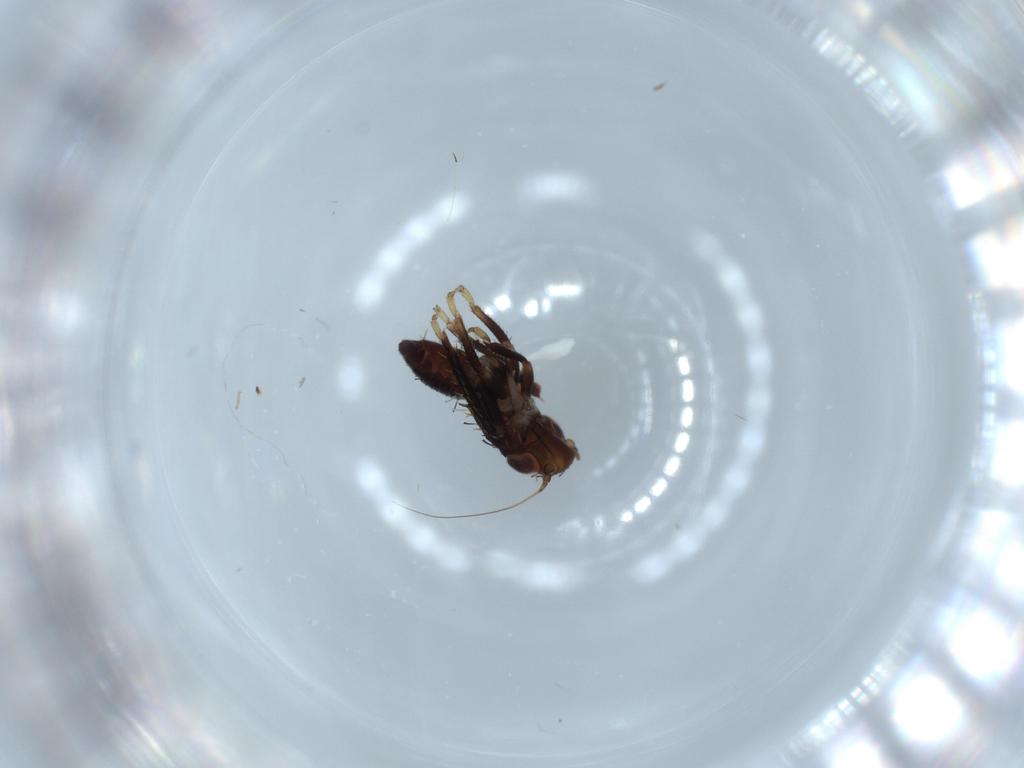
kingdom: Animalia
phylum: Arthropoda
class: Insecta
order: Hemiptera
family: Cicadellidae
